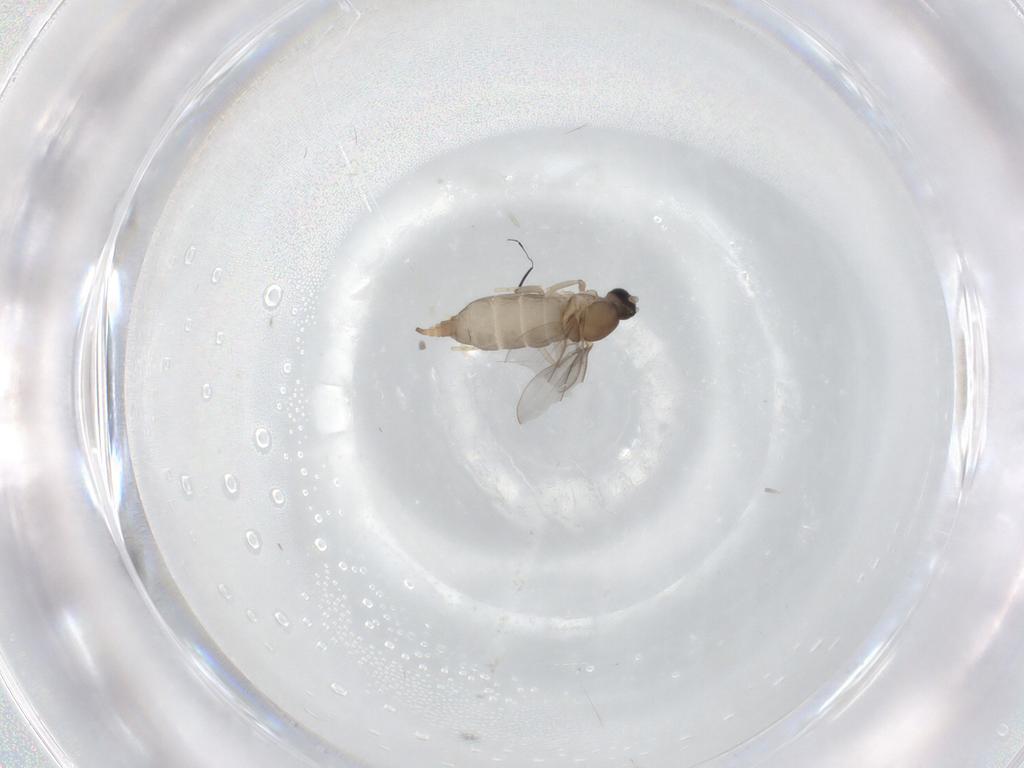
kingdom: Animalia
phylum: Arthropoda
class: Insecta
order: Diptera
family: Cecidomyiidae
